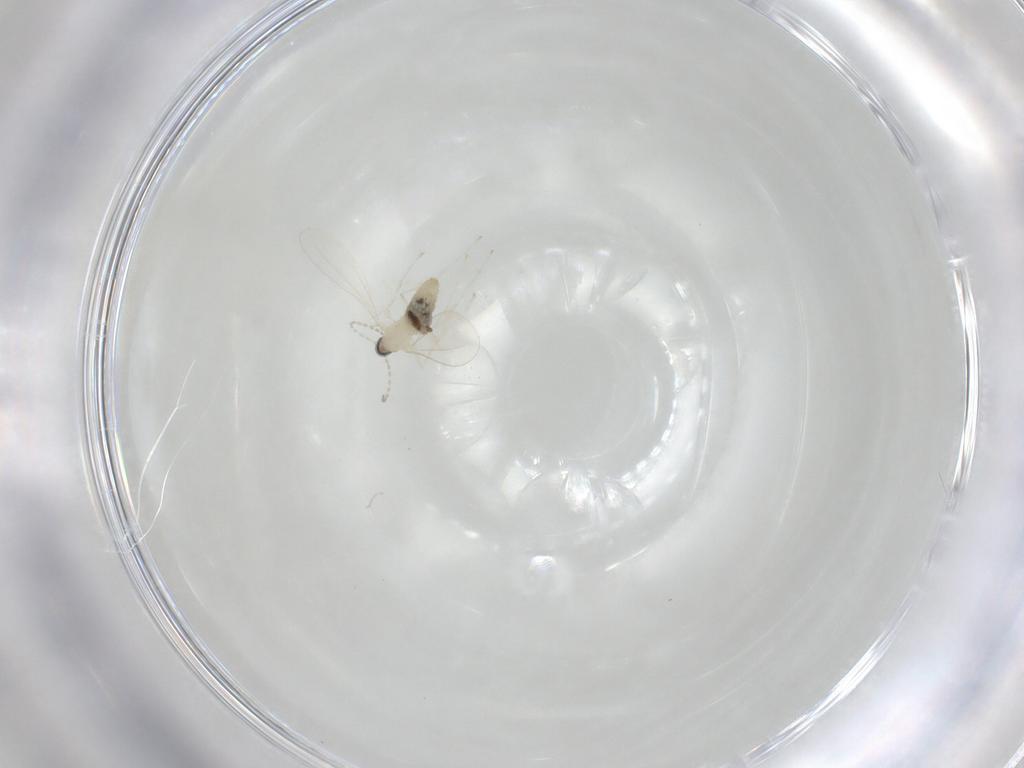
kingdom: Animalia
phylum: Arthropoda
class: Insecta
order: Diptera
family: Cecidomyiidae
